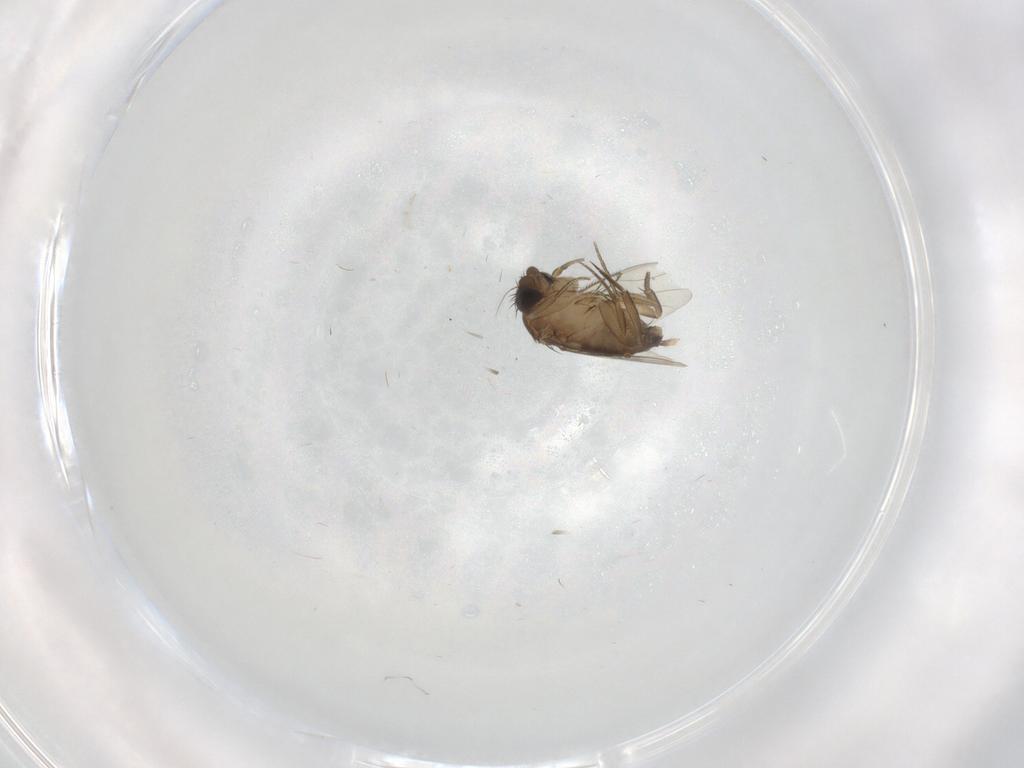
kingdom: Animalia
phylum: Arthropoda
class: Insecta
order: Diptera
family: Phoridae
